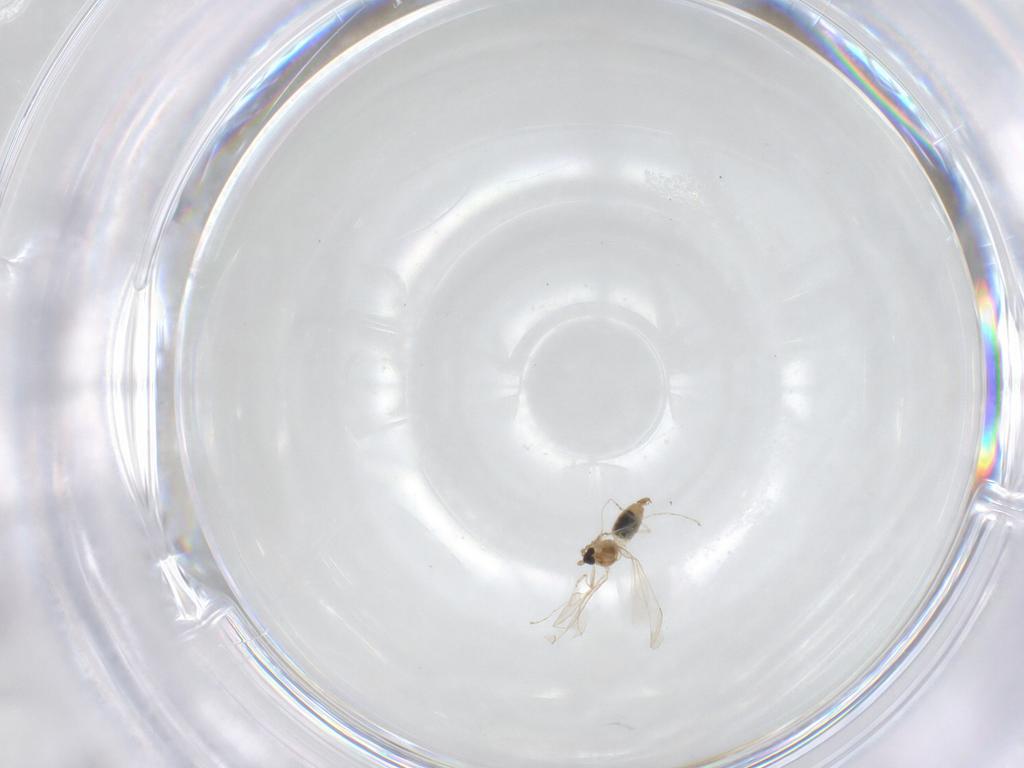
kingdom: Animalia
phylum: Arthropoda
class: Insecta
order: Diptera
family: Cecidomyiidae
